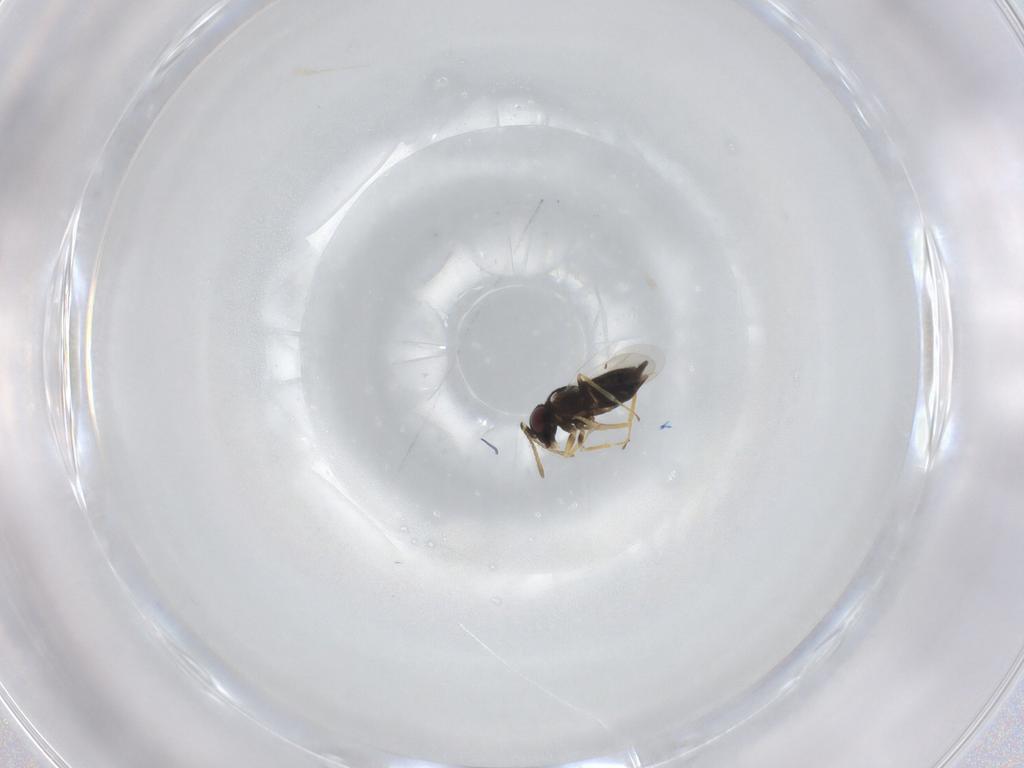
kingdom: Animalia
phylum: Arthropoda
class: Insecta
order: Hymenoptera
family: Encyrtidae
